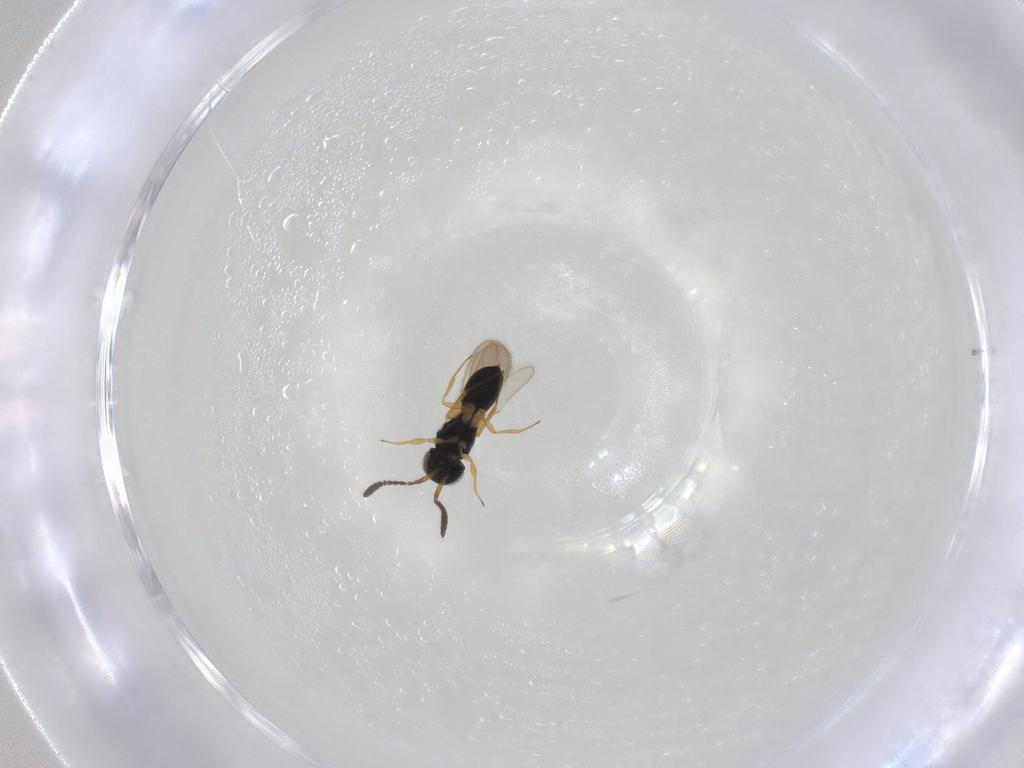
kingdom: Animalia
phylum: Arthropoda
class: Insecta
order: Hymenoptera
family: Scelionidae
